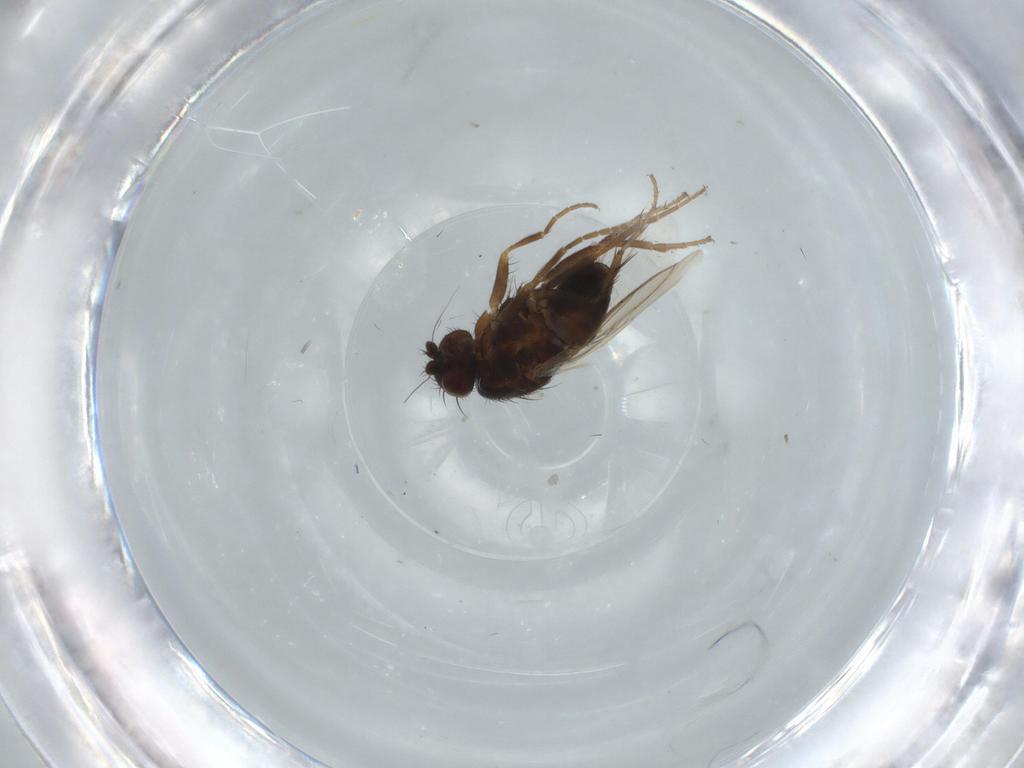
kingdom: Animalia
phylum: Arthropoda
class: Insecta
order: Diptera
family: Sphaeroceridae
